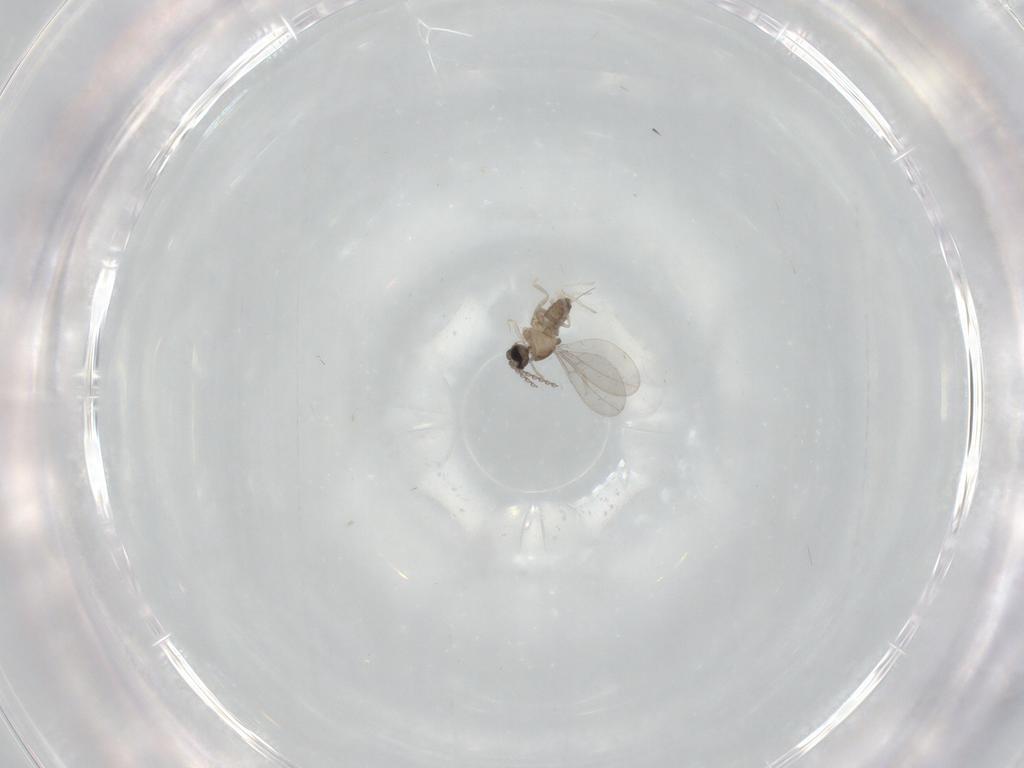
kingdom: Animalia
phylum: Arthropoda
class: Insecta
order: Diptera
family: Cecidomyiidae
